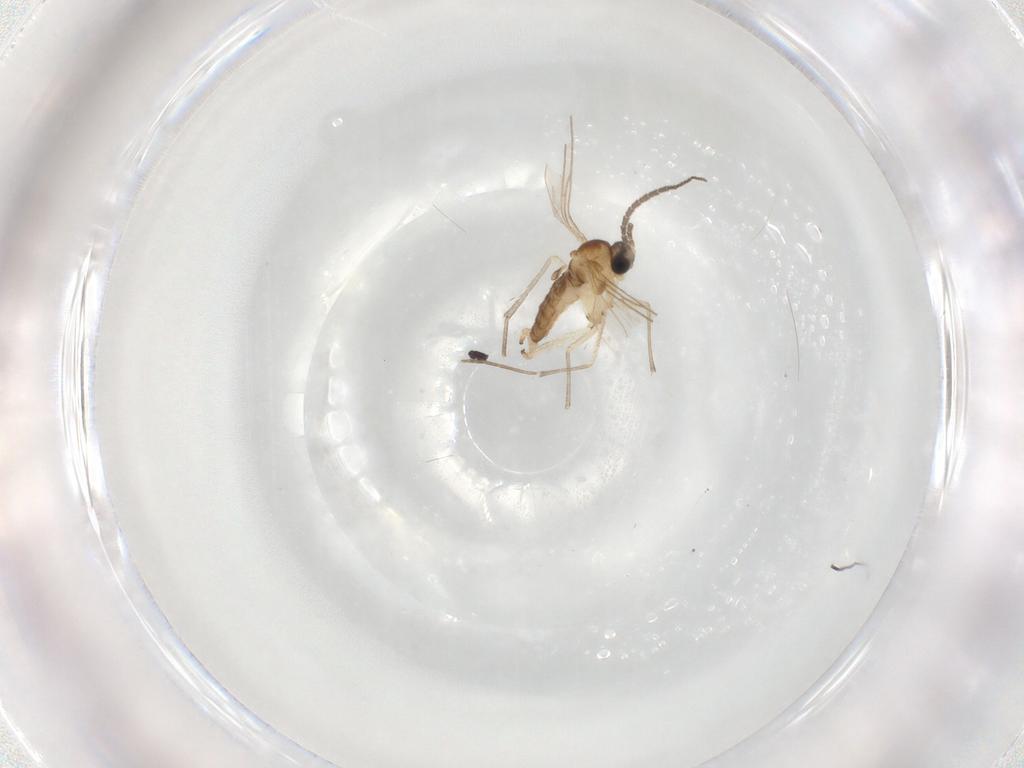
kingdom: Animalia
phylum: Arthropoda
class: Insecta
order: Diptera
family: Sciaridae
